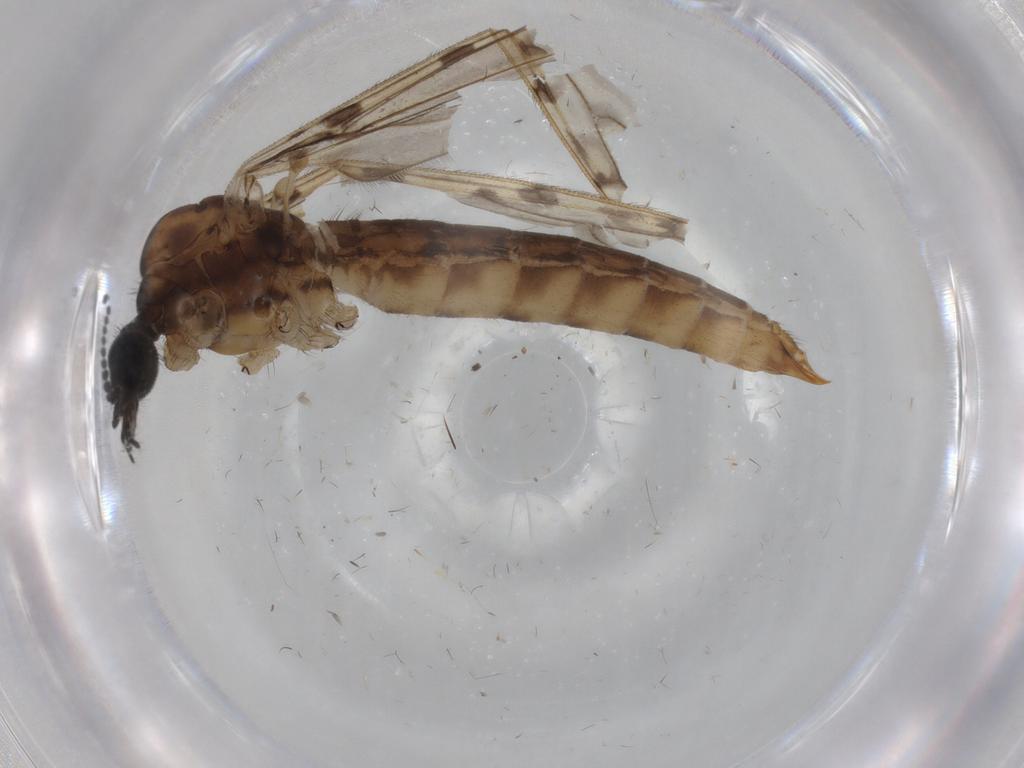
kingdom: Animalia
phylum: Arthropoda
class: Insecta
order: Diptera
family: Limoniidae
